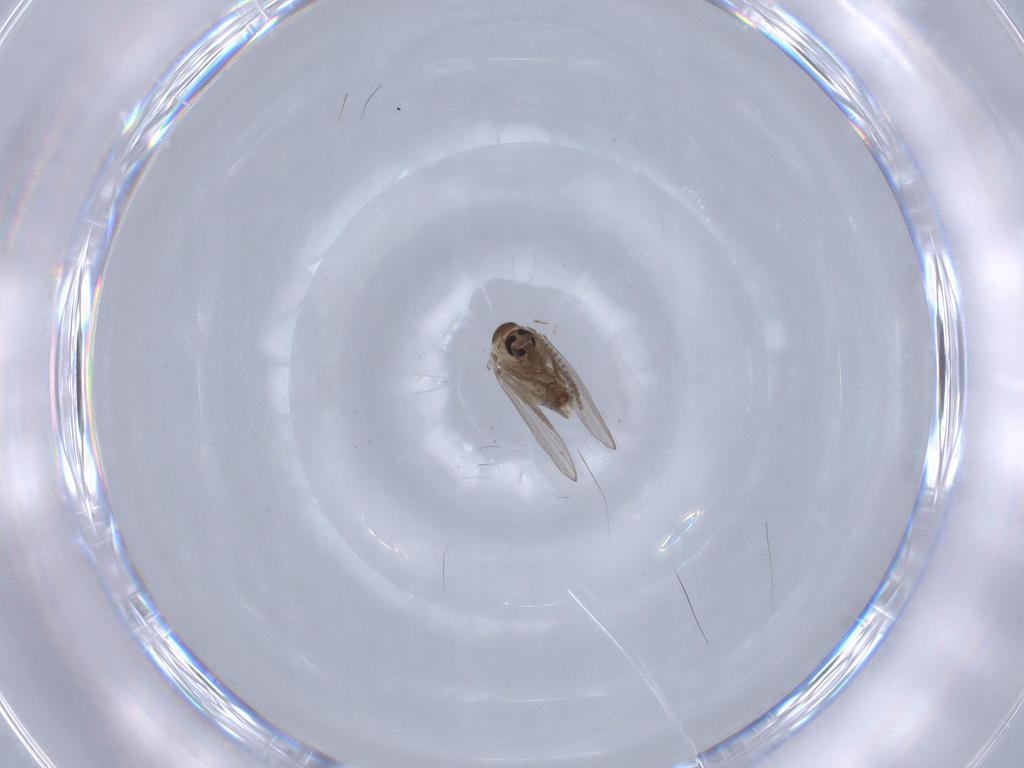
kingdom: Animalia
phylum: Arthropoda
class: Insecta
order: Diptera
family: Psychodidae
